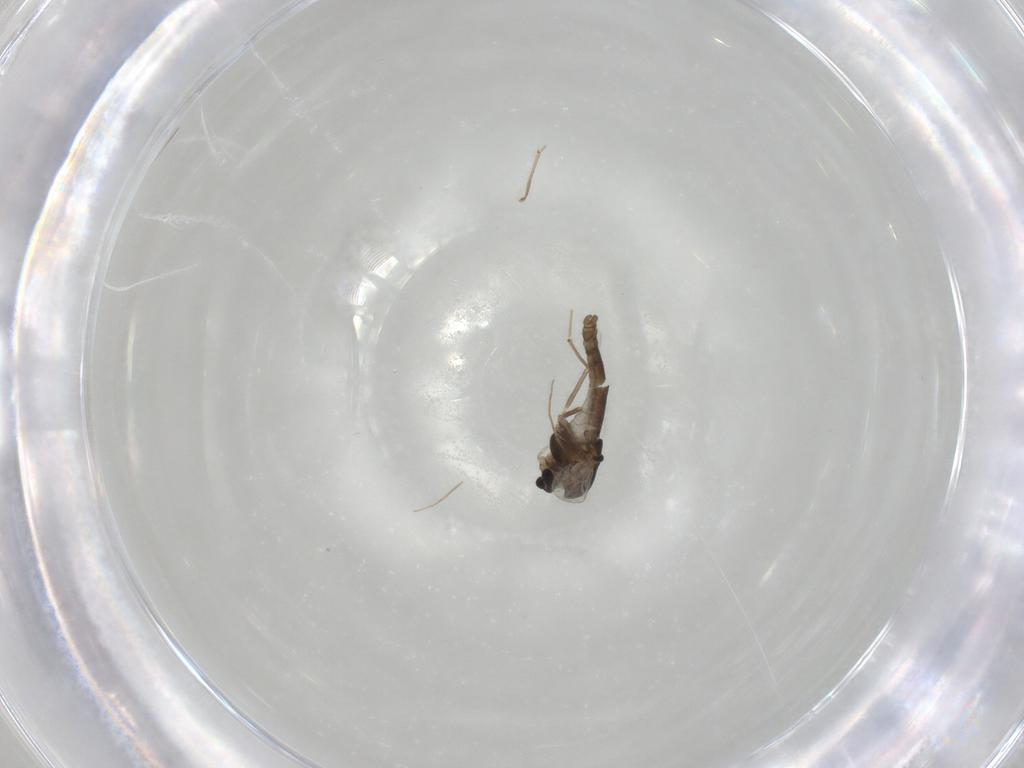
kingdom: Animalia
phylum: Arthropoda
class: Insecta
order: Diptera
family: Chironomidae
